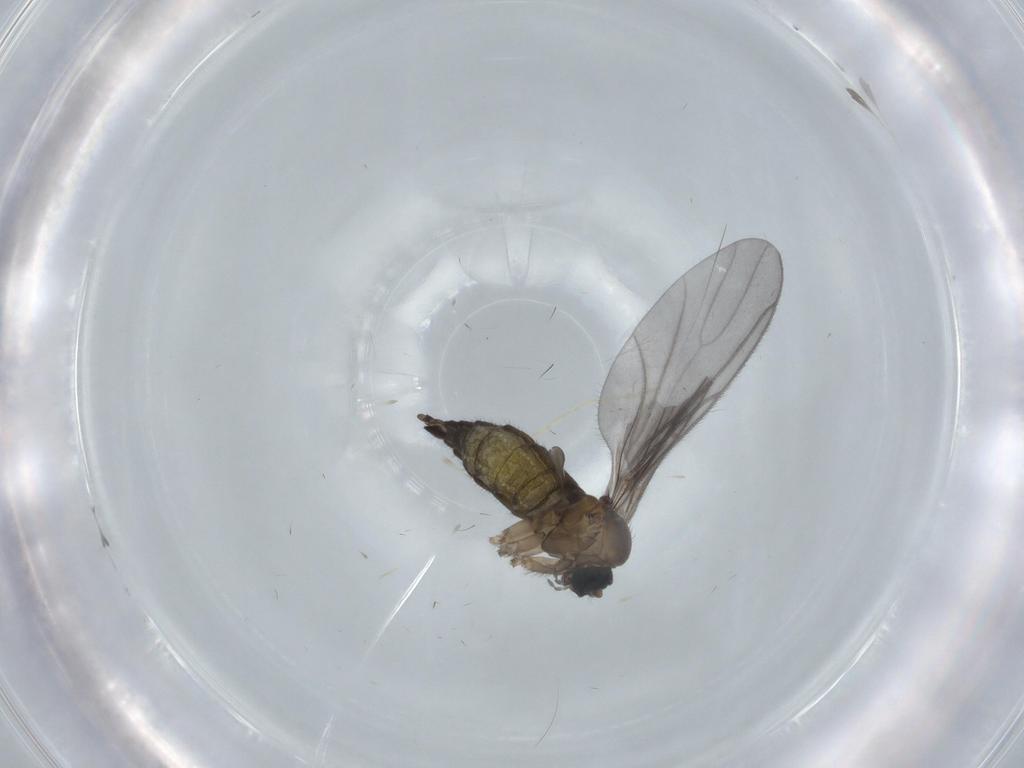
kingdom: Animalia
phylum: Arthropoda
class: Insecta
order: Diptera
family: Sciaridae
